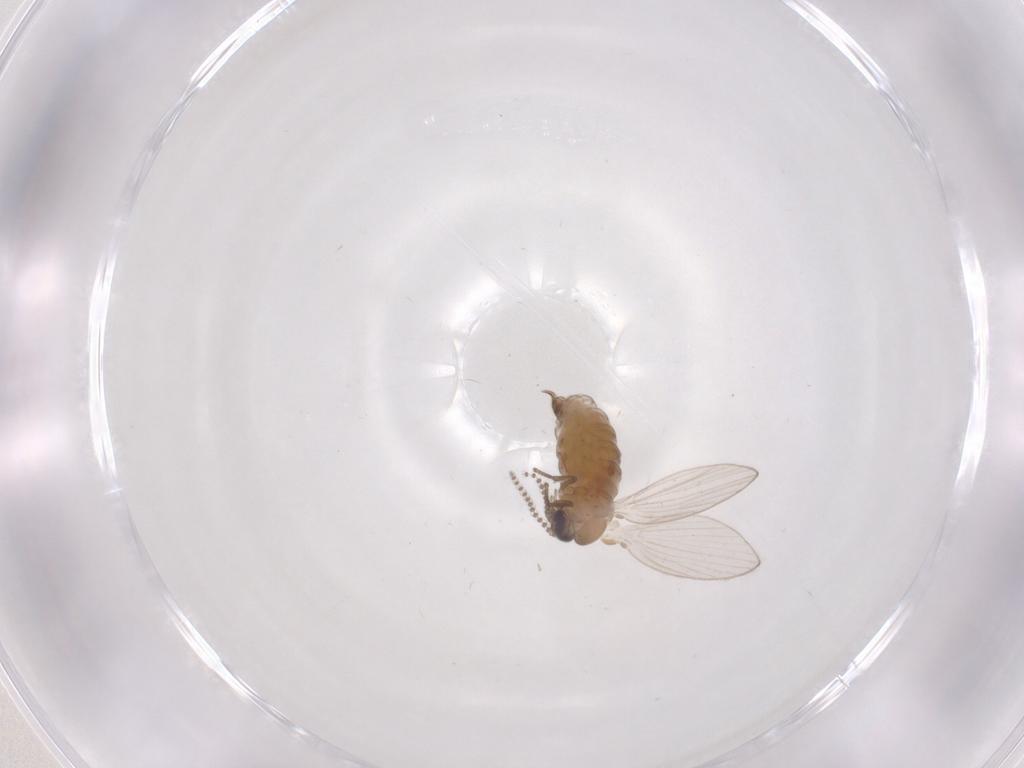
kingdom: Animalia
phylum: Arthropoda
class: Insecta
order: Diptera
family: Psychodidae
